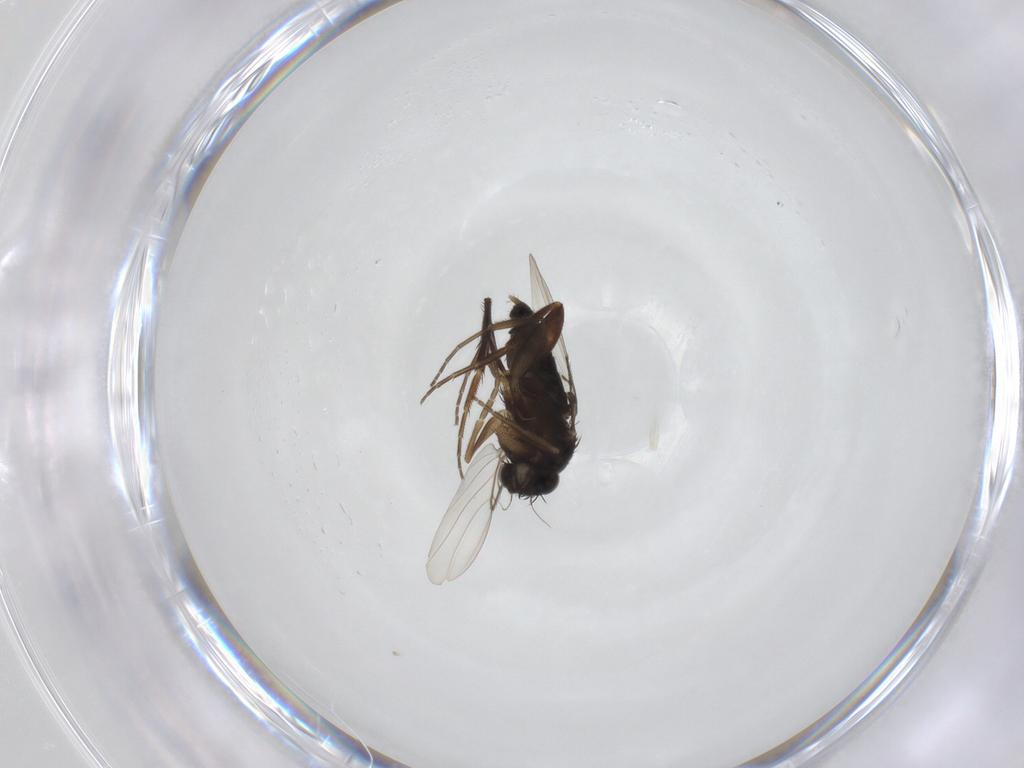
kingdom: Animalia
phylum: Arthropoda
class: Insecta
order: Diptera
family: Phoridae
